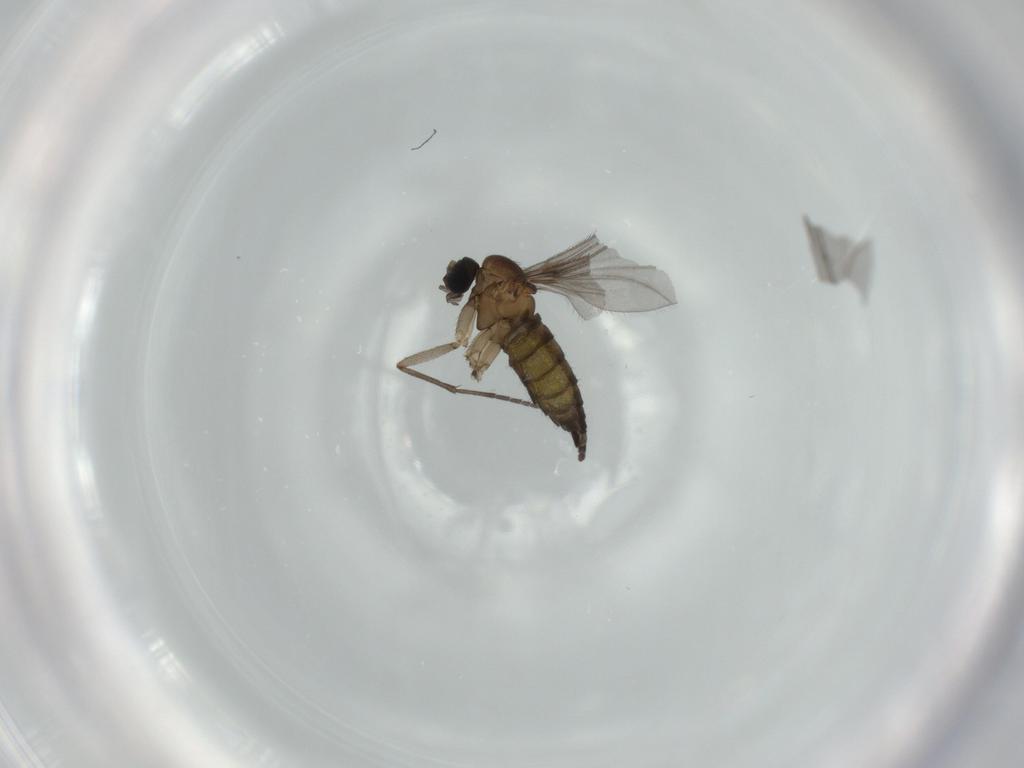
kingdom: Animalia
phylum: Arthropoda
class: Insecta
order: Diptera
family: Sciaridae
